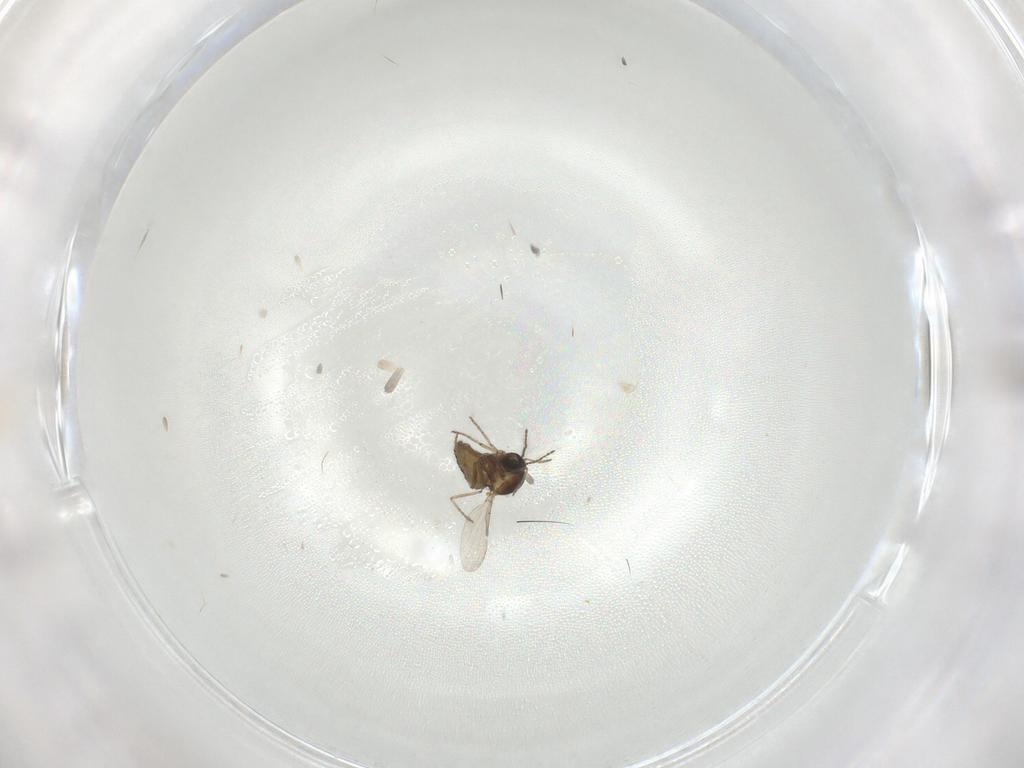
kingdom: Animalia
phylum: Arthropoda
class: Insecta
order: Diptera
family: Ceratopogonidae
